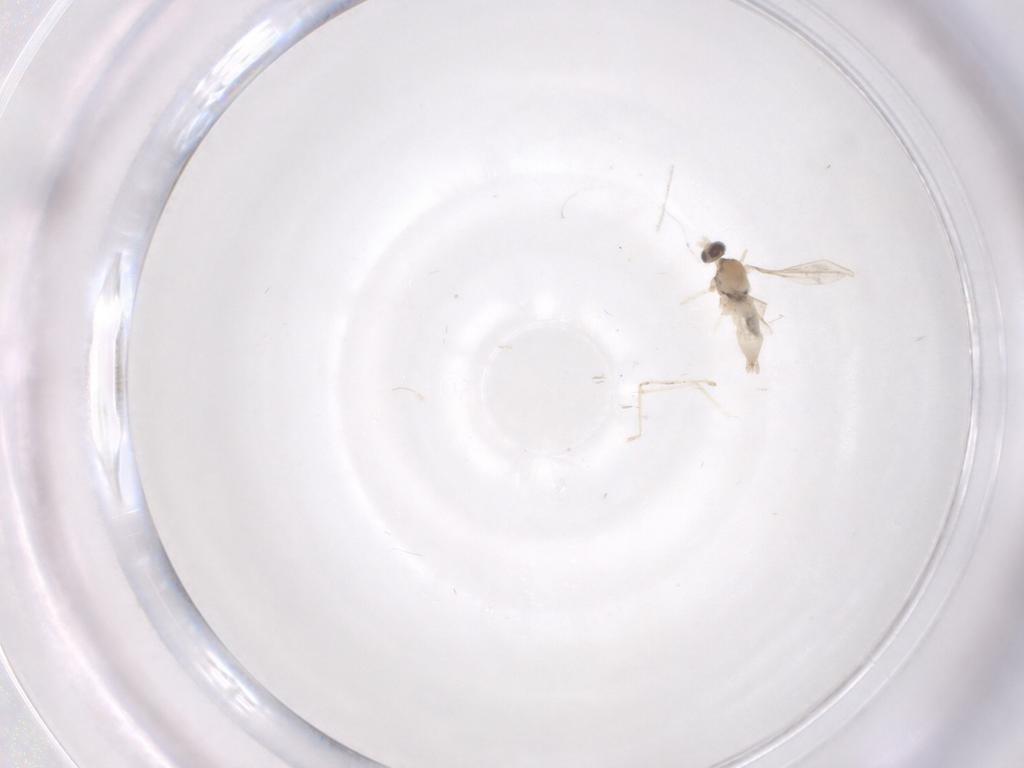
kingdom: Animalia
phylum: Arthropoda
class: Insecta
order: Diptera
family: Cecidomyiidae
